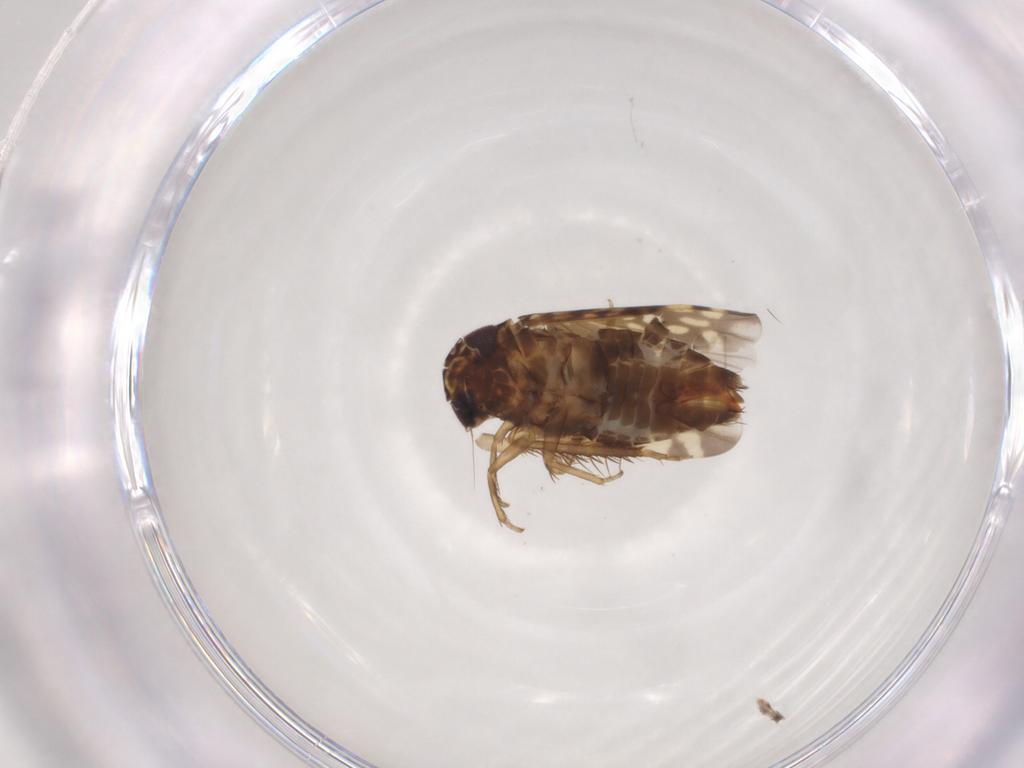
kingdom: Animalia
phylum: Arthropoda
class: Insecta
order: Hemiptera
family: Cicadellidae
